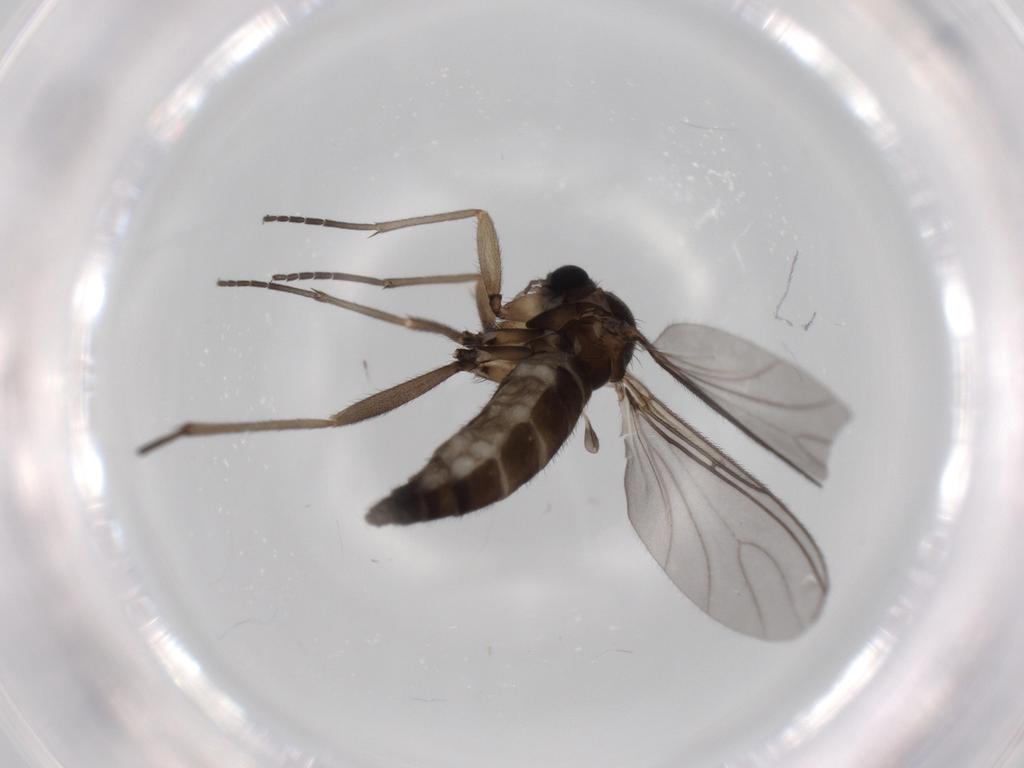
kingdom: Animalia
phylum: Arthropoda
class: Insecta
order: Diptera
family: Sciaridae
